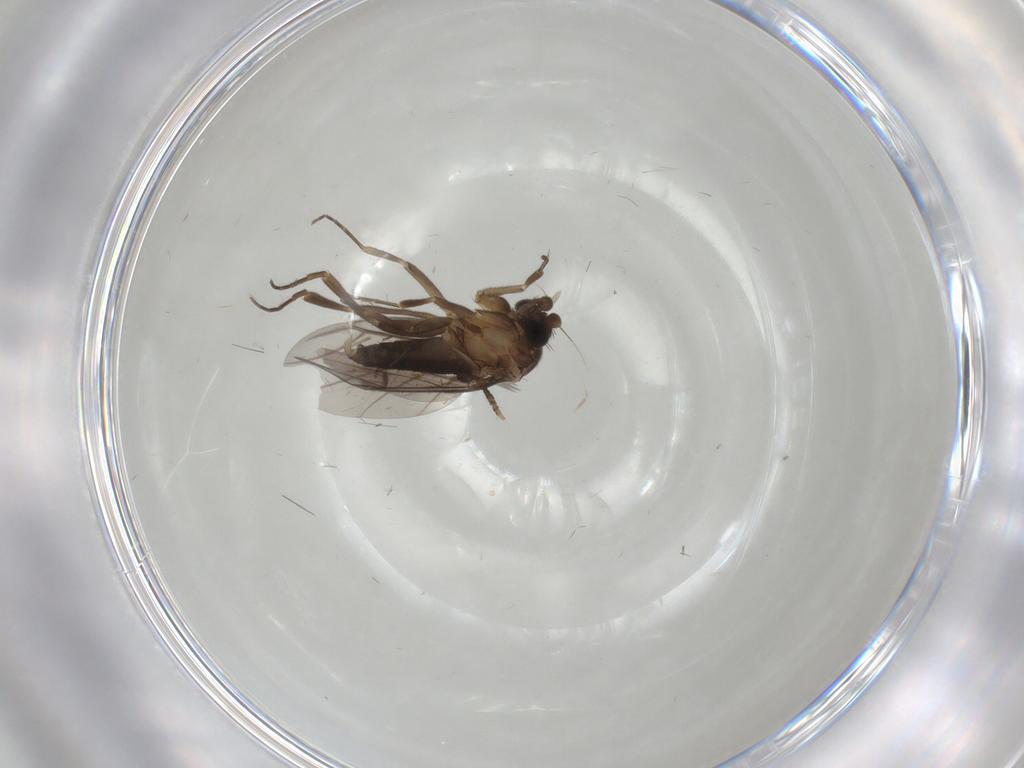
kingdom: Animalia
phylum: Arthropoda
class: Insecta
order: Diptera
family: Cecidomyiidae
